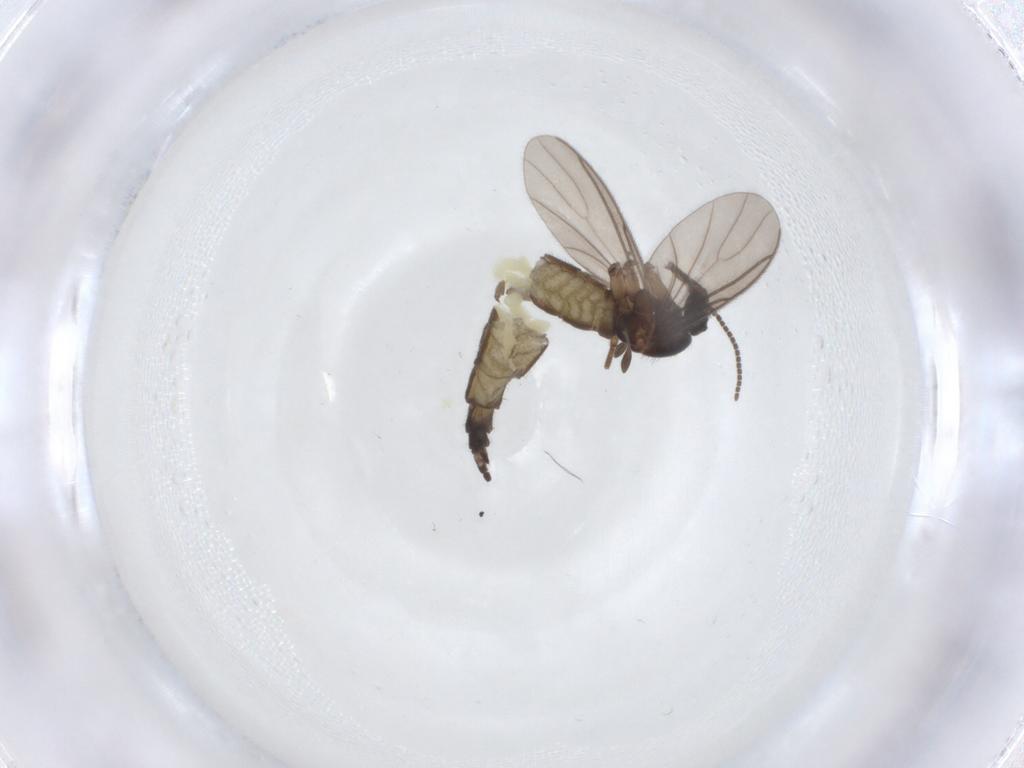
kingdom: Animalia
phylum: Arthropoda
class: Insecta
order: Diptera
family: Sciaridae
